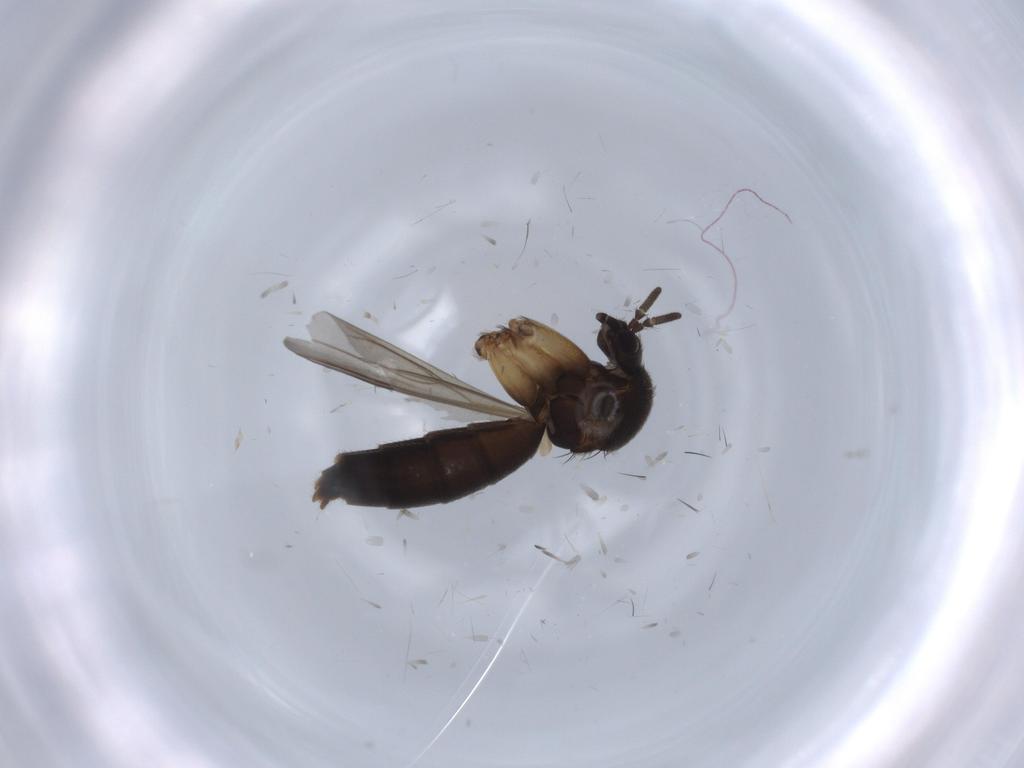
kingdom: Animalia
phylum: Arthropoda
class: Insecta
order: Diptera
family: Mycetophilidae
